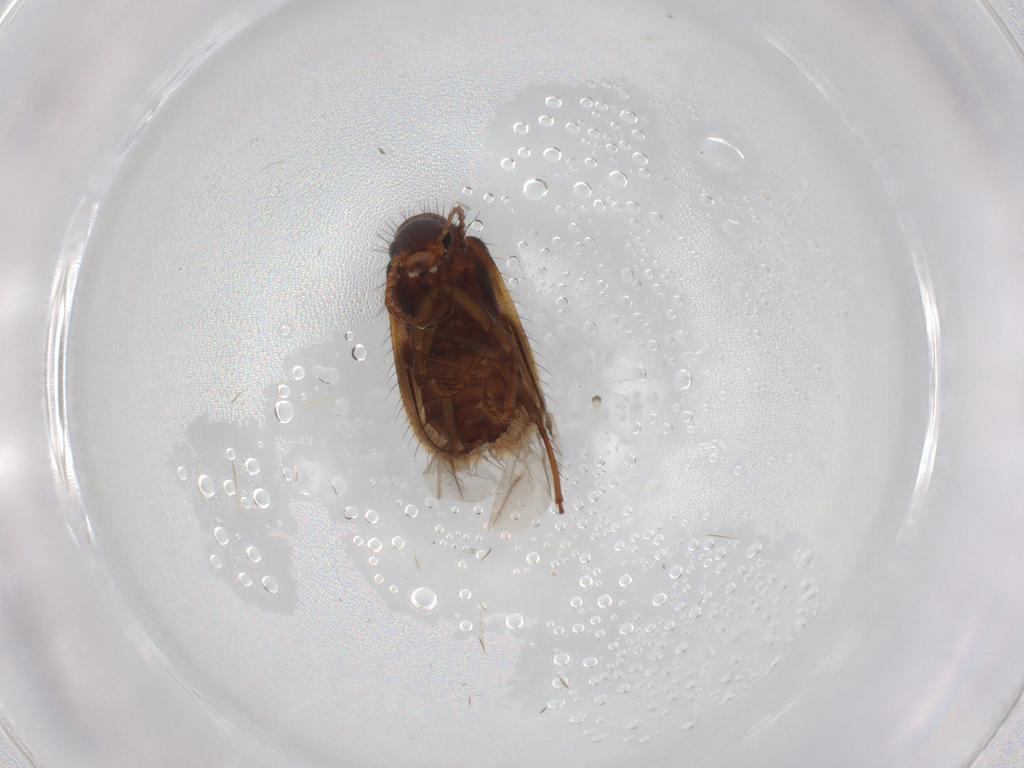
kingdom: Animalia
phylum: Arthropoda
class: Insecta
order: Coleoptera
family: Melyridae
